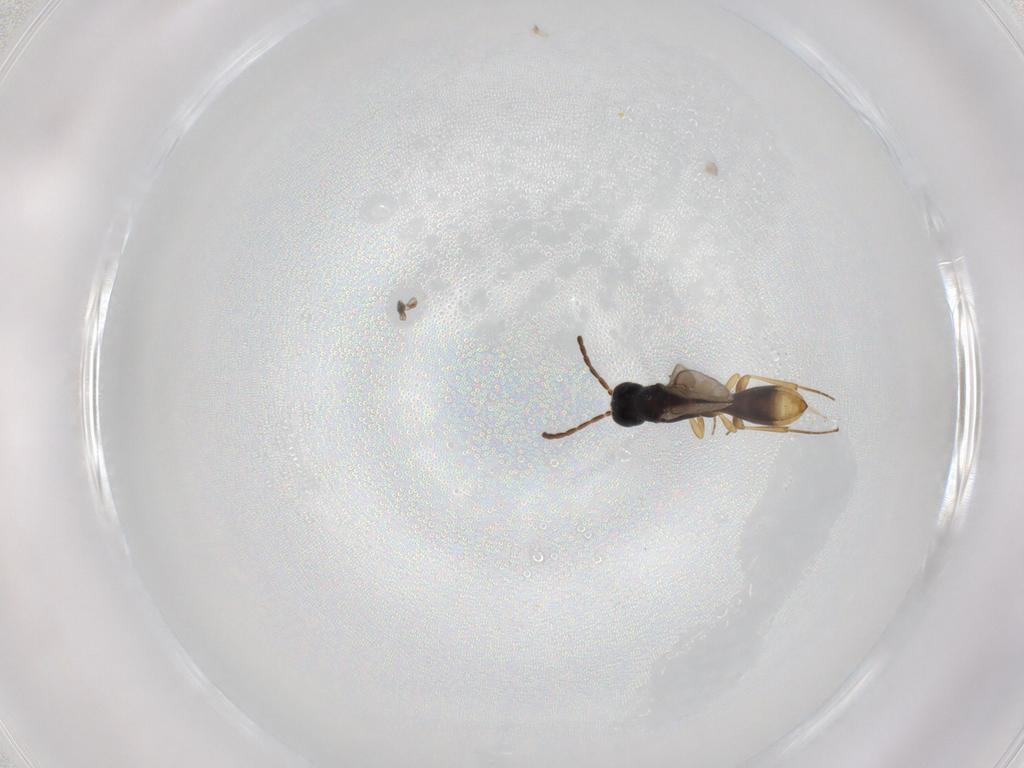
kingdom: Animalia
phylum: Arthropoda
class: Insecta
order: Hymenoptera
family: Scelionidae
